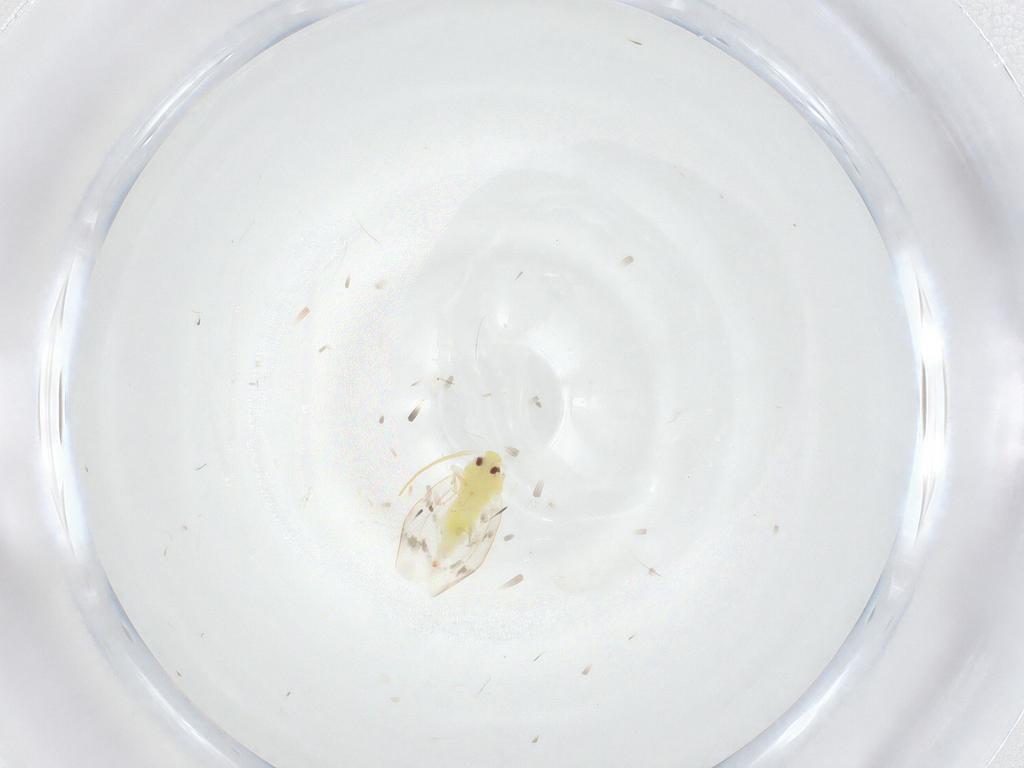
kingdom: Animalia
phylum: Arthropoda
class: Insecta
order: Hemiptera
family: Aleyrodidae
